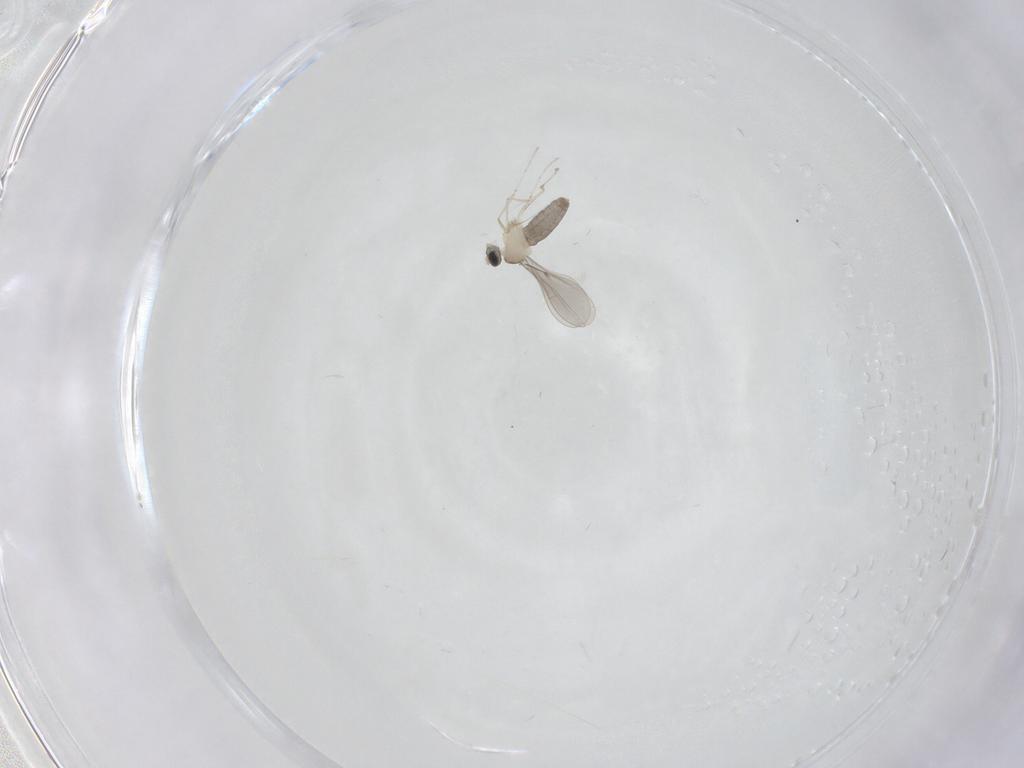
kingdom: Animalia
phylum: Arthropoda
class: Insecta
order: Diptera
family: Cecidomyiidae
